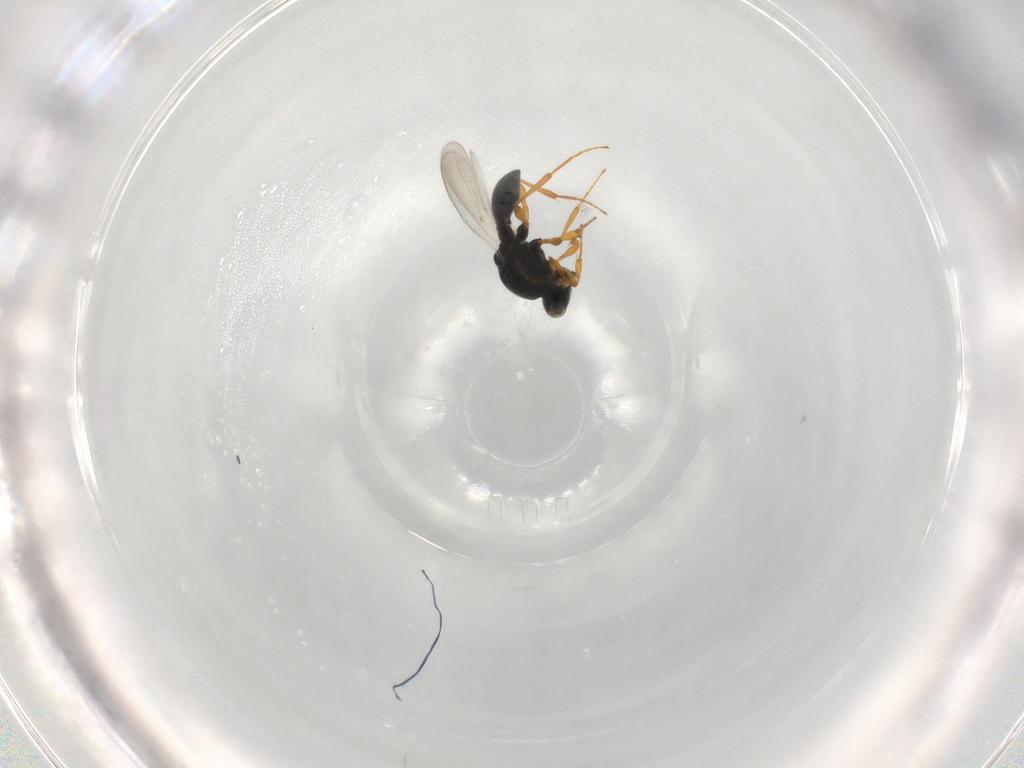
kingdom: Animalia
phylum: Arthropoda
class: Insecta
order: Hymenoptera
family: Platygastridae
